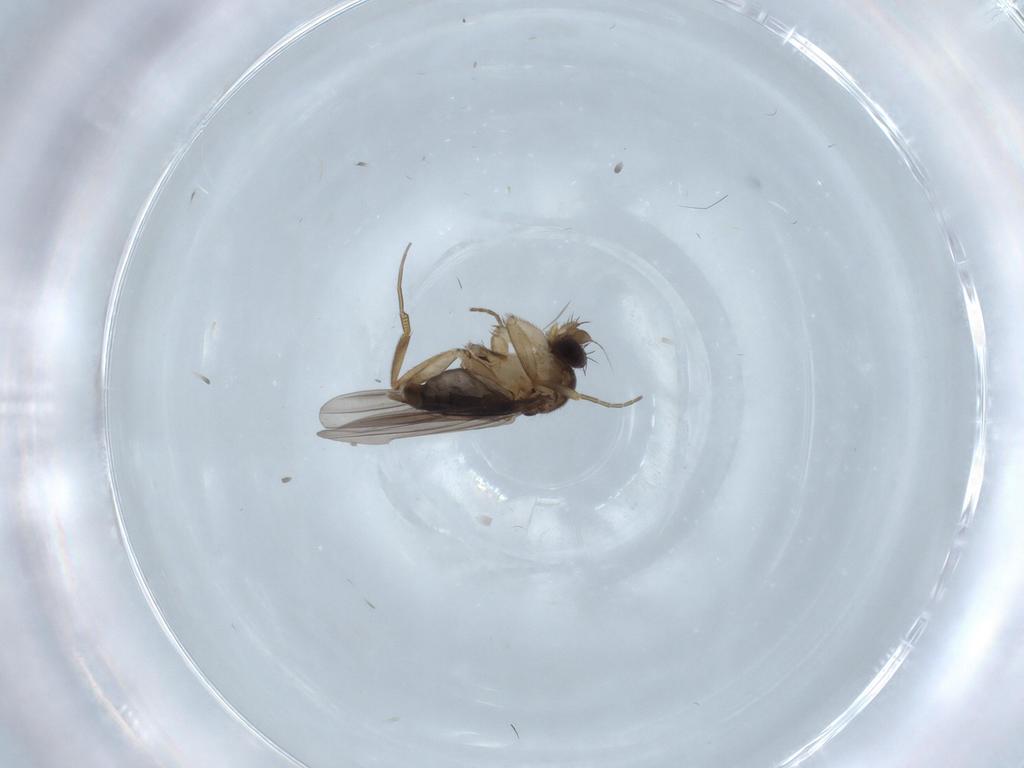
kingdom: Animalia
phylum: Arthropoda
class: Insecta
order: Diptera
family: Phoridae
